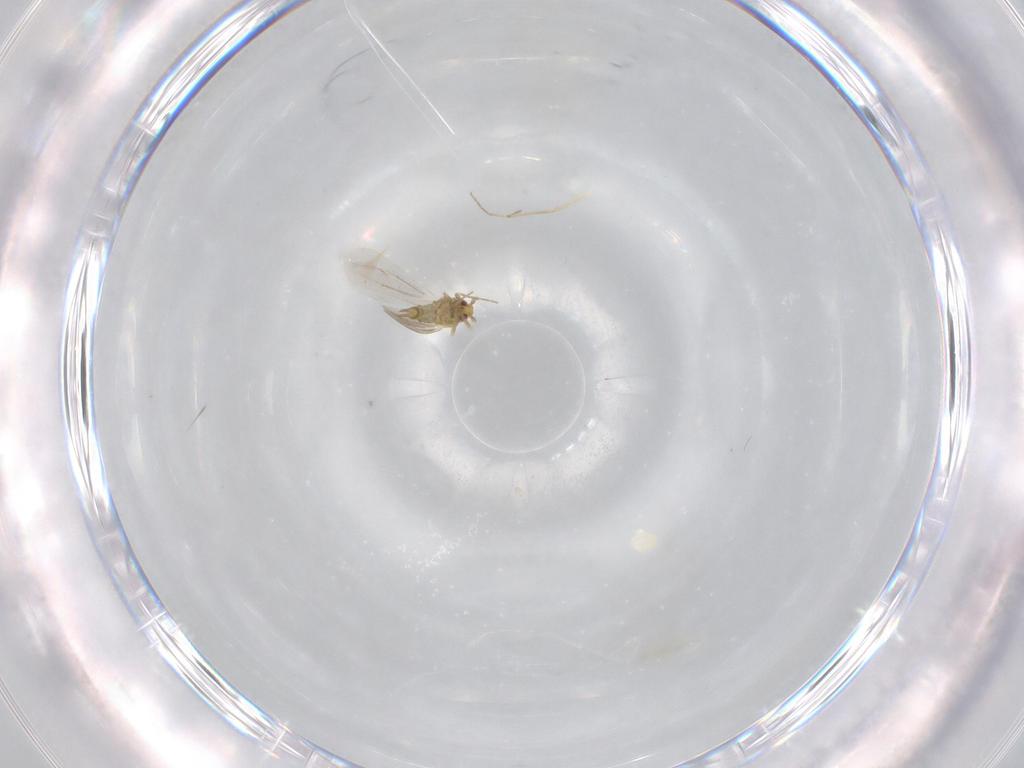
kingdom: Animalia
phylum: Arthropoda
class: Insecta
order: Hemiptera
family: Aleyrodidae
